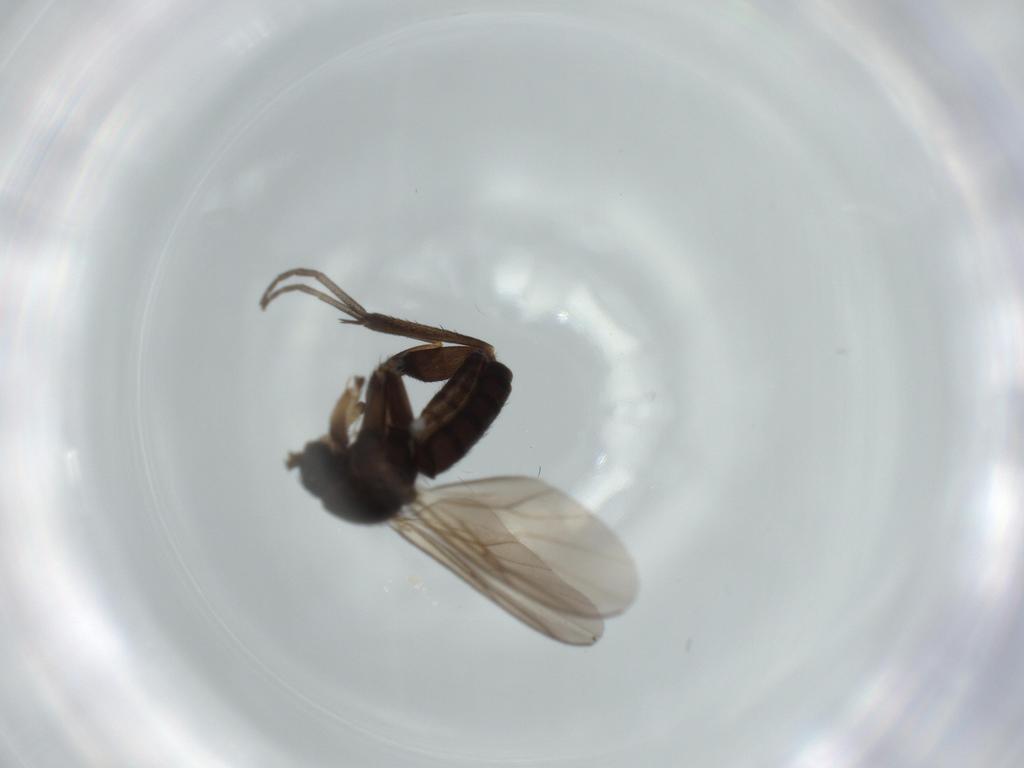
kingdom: Animalia
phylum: Arthropoda
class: Insecta
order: Diptera
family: Mycetophilidae
